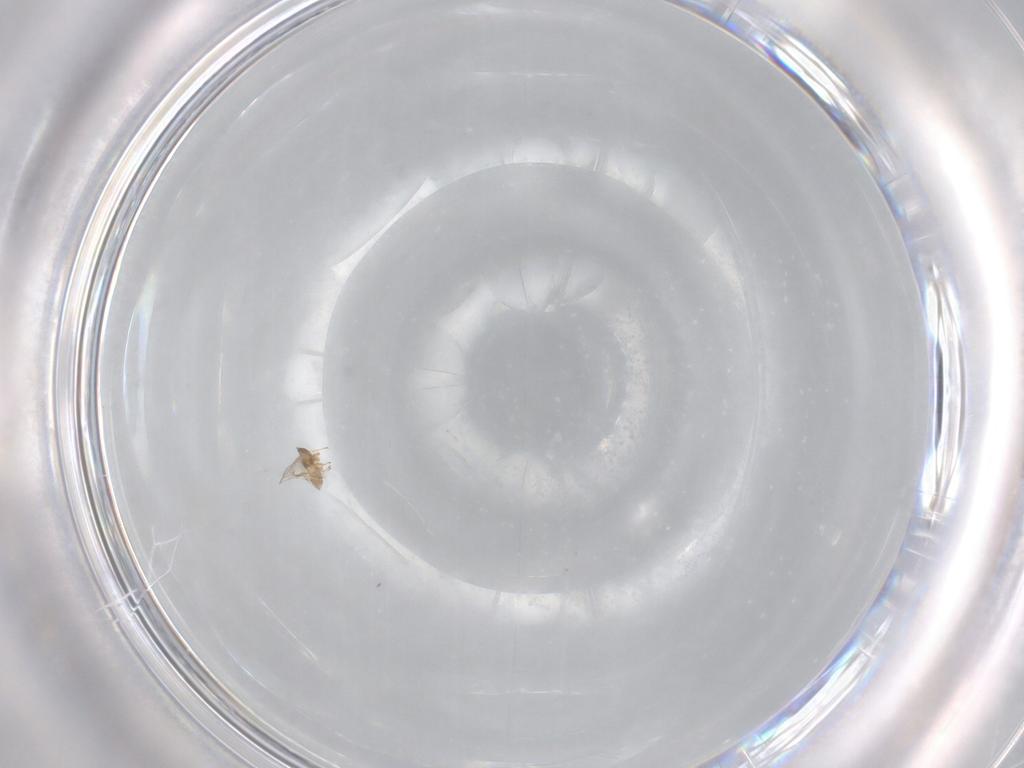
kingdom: Animalia
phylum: Arthropoda
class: Insecta
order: Hymenoptera
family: Trichogrammatidae
